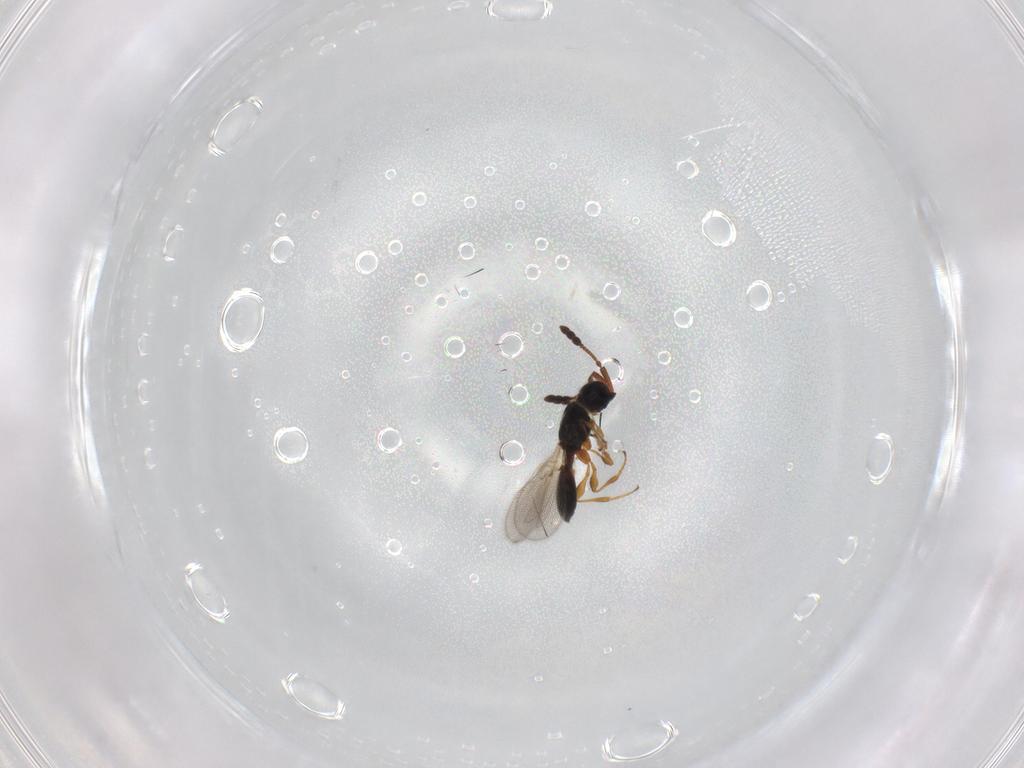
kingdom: Animalia
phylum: Arthropoda
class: Insecta
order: Hymenoptera
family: Diapriidae
